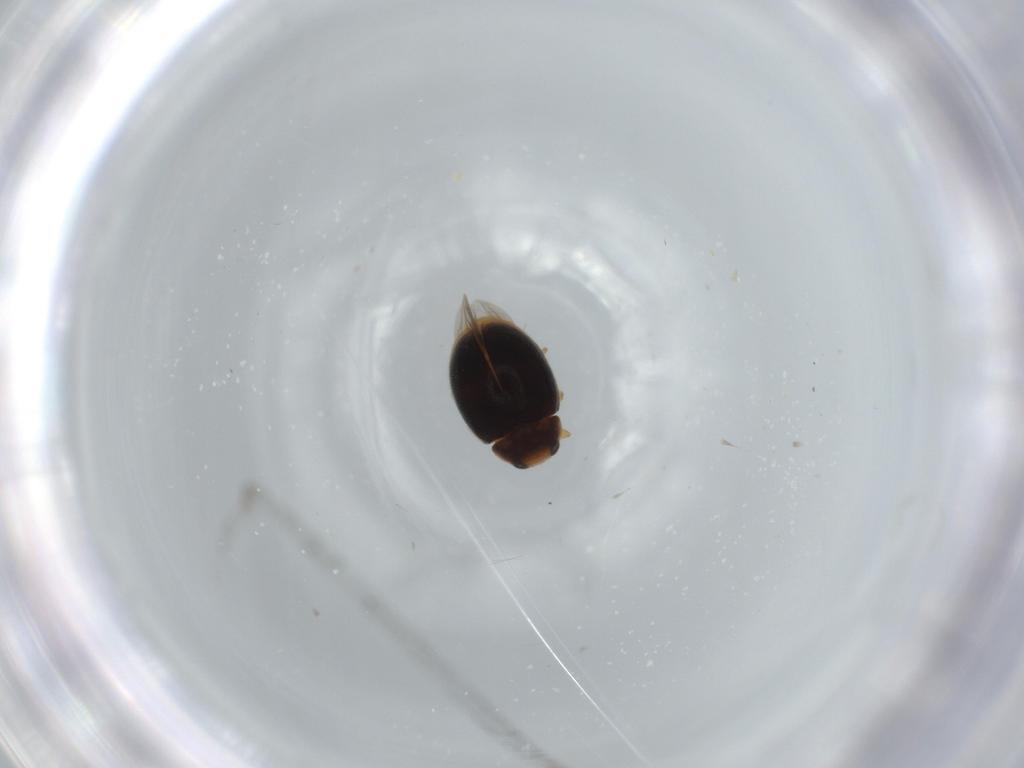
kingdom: Animalia
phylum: Arthropoda
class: Insecta
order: Coleoptera
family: Coccinellidae
